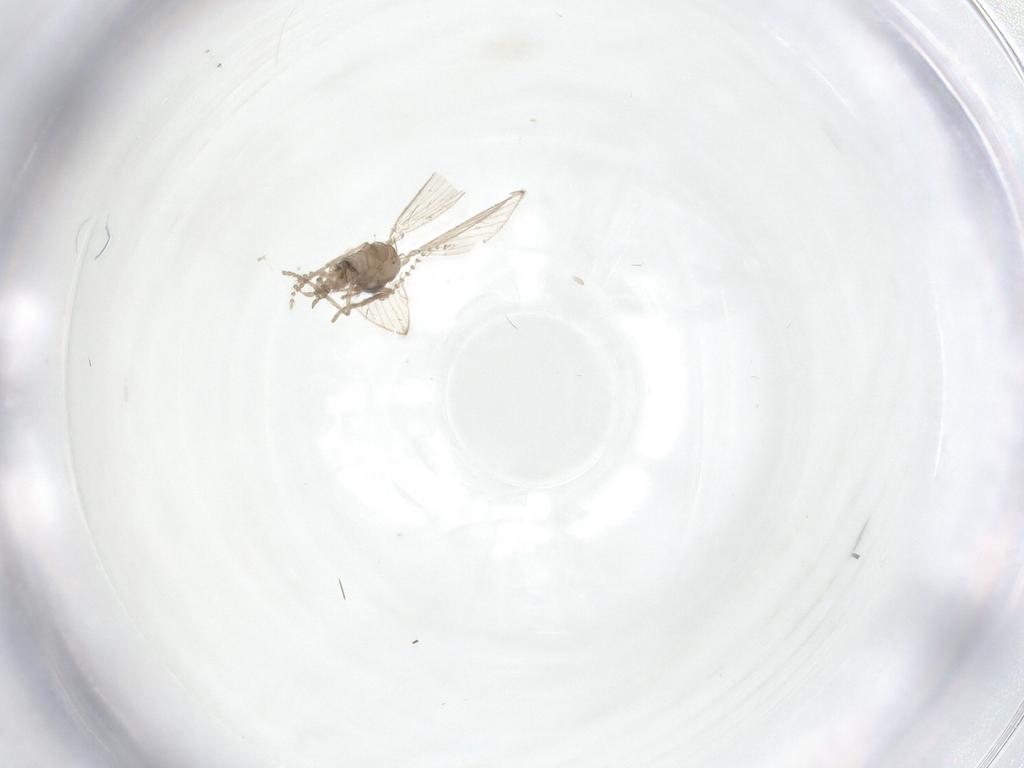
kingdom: Animalia
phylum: Arthropoda
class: Insecta
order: Diptera
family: Psychodidae
